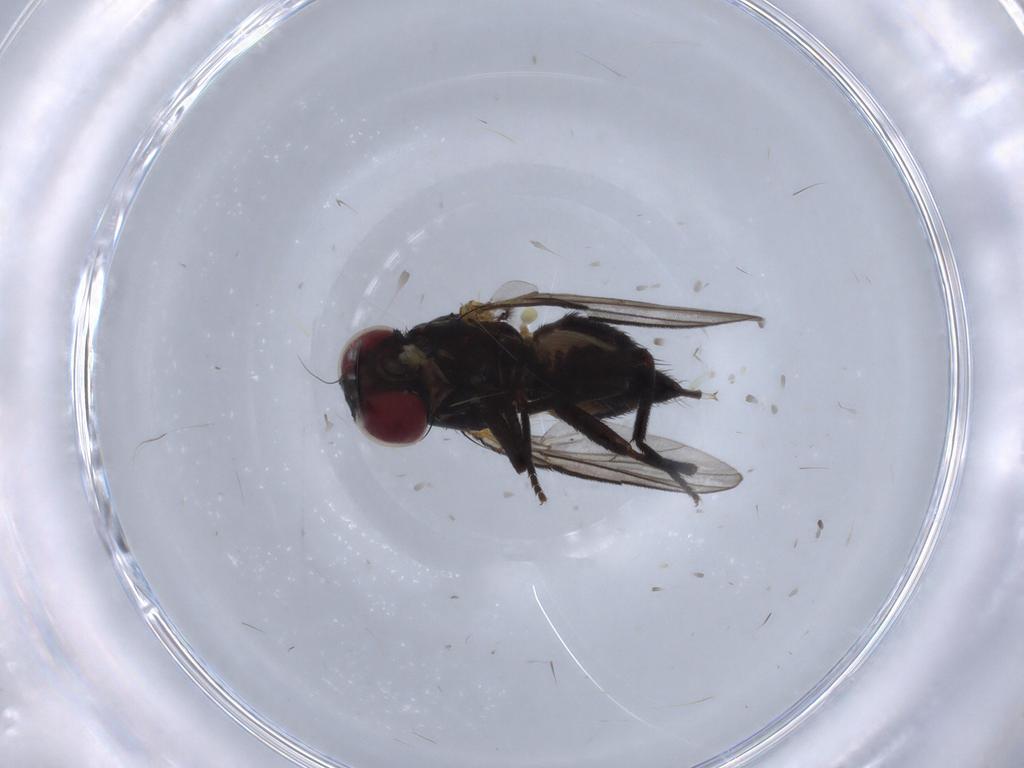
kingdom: Animalia
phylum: Arthropoda
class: Insecta
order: Diptera
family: Agromyzidae
